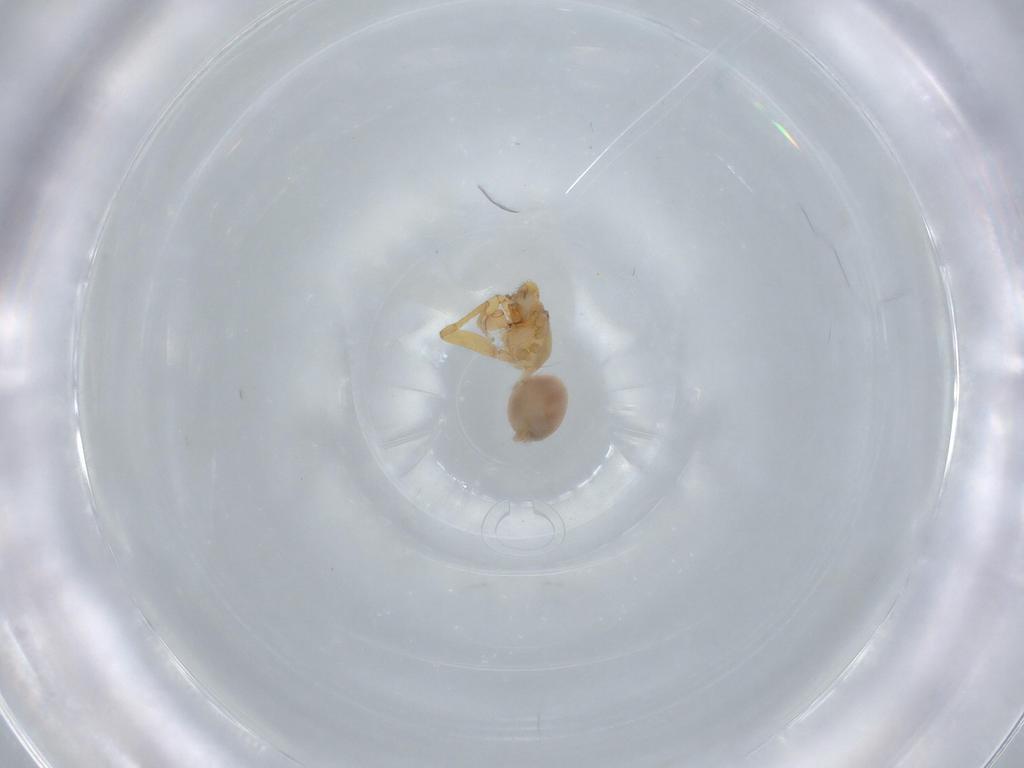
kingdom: Animalia
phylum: Arthropoda
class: Arachnida
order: Araneae
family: Oonopidae
